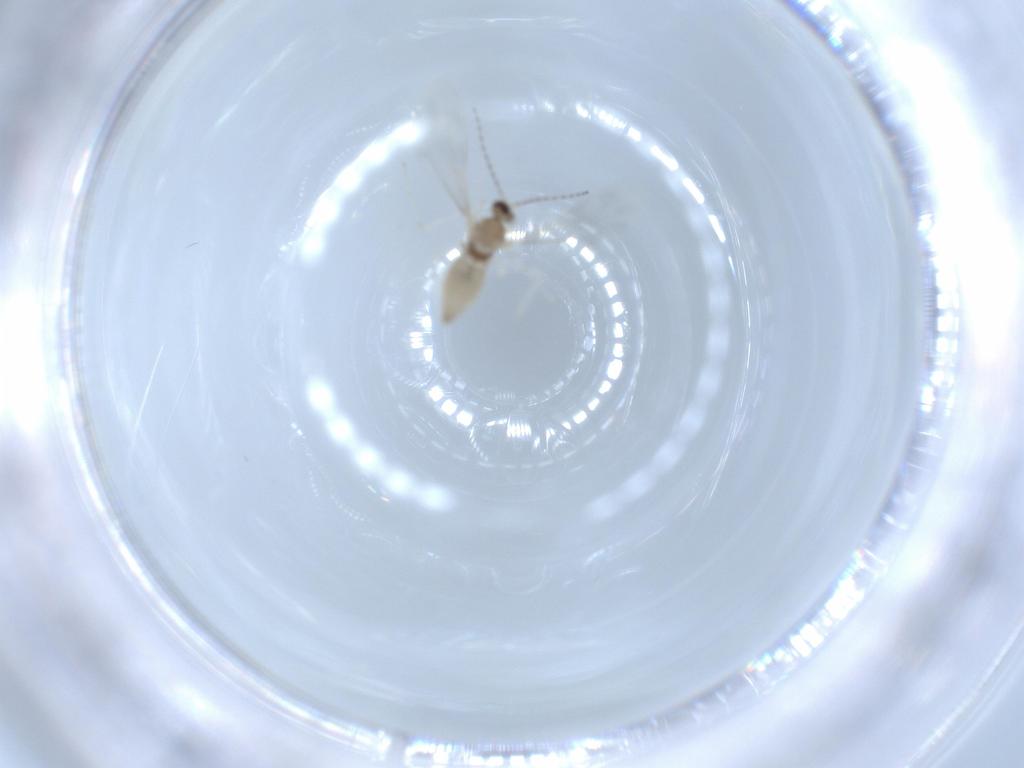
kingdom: Animalia
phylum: Arthropoda
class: Insecta
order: Diptera
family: Cecidomyiidae
